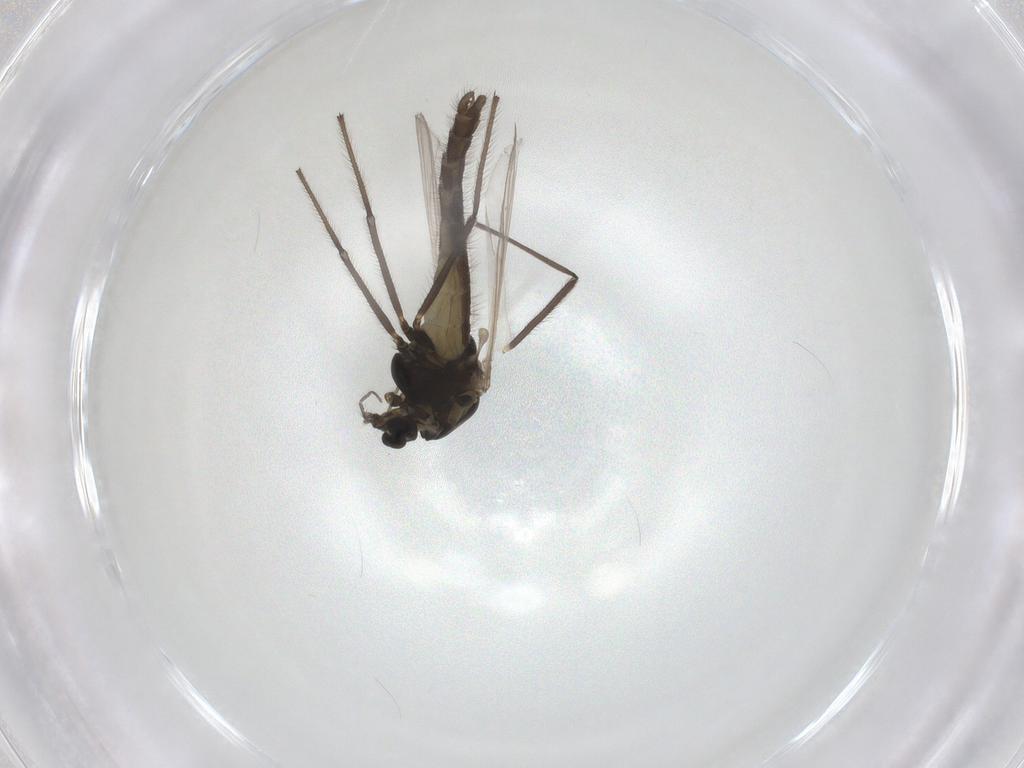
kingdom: Animalia
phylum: Arthropoda
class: Insecta
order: Diptera
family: Chironomidae
